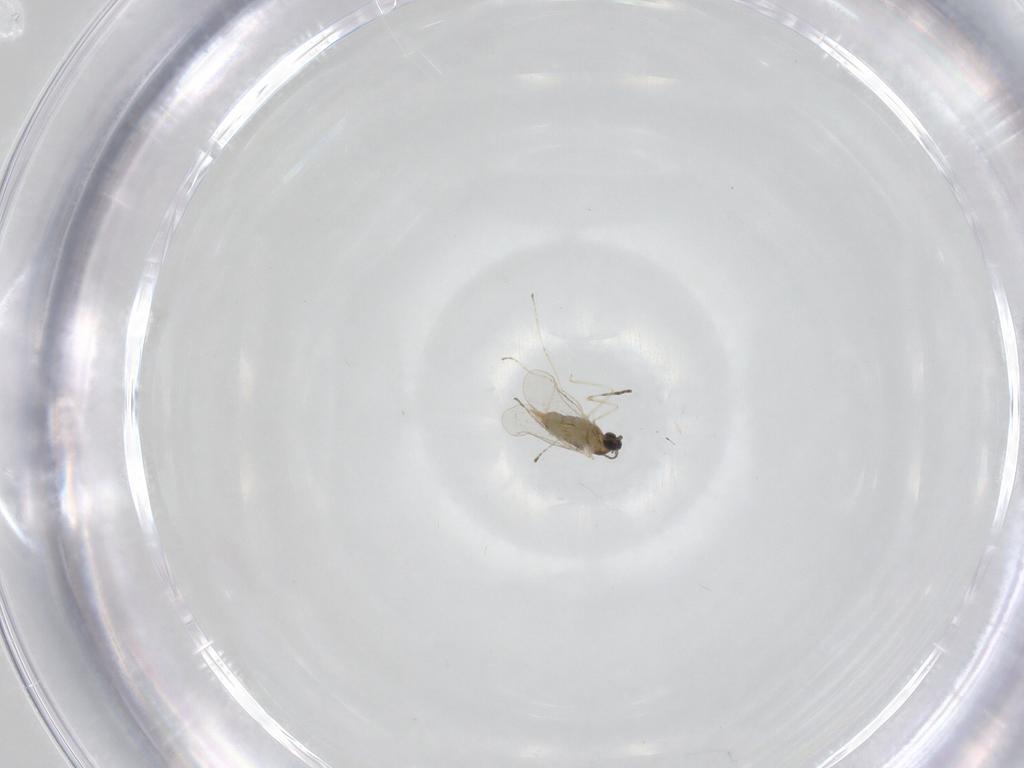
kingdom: Animalia
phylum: Arthropoda
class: Insecta
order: Diptera
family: Cecidomyiidae
